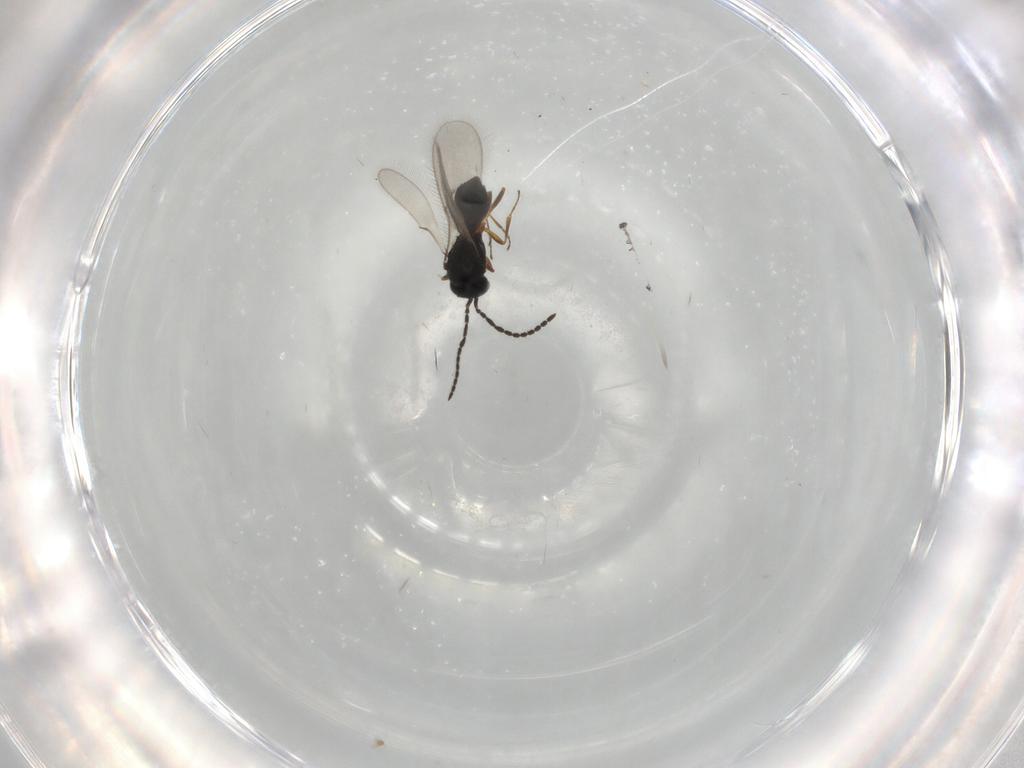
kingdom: Animalia
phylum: Arthropoda
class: Insecta
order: Hymenoptera
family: Scelionidae
